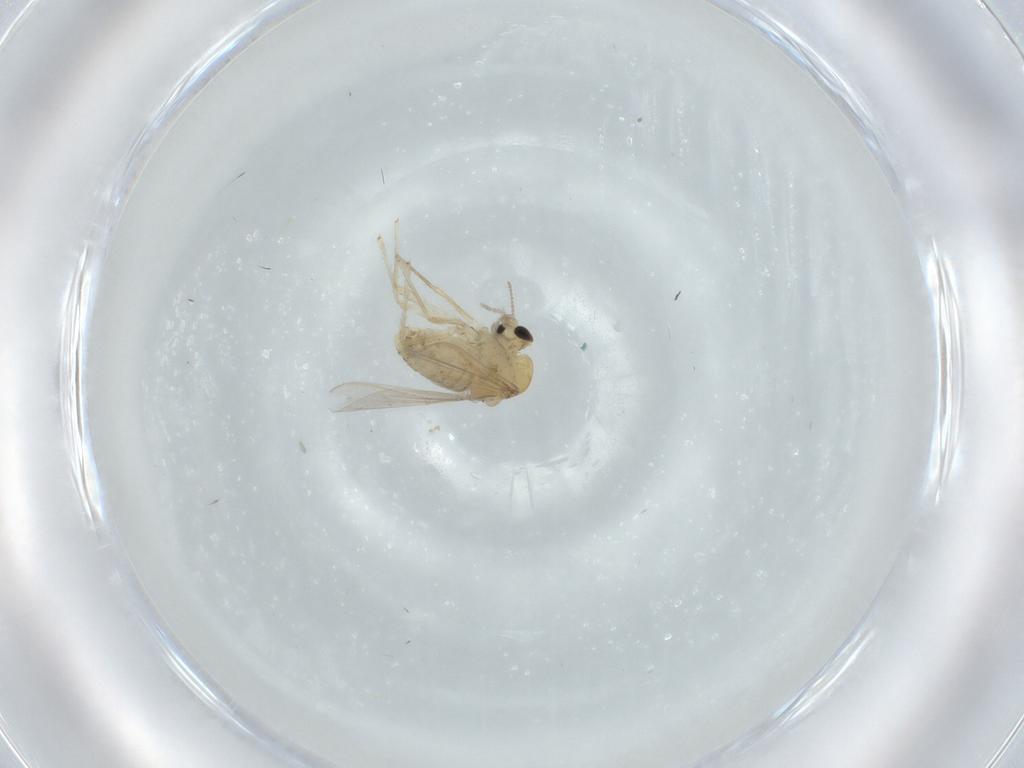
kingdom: Animalia
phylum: Arthropoda
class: Insecta
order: Diptera
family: Chironomidae
